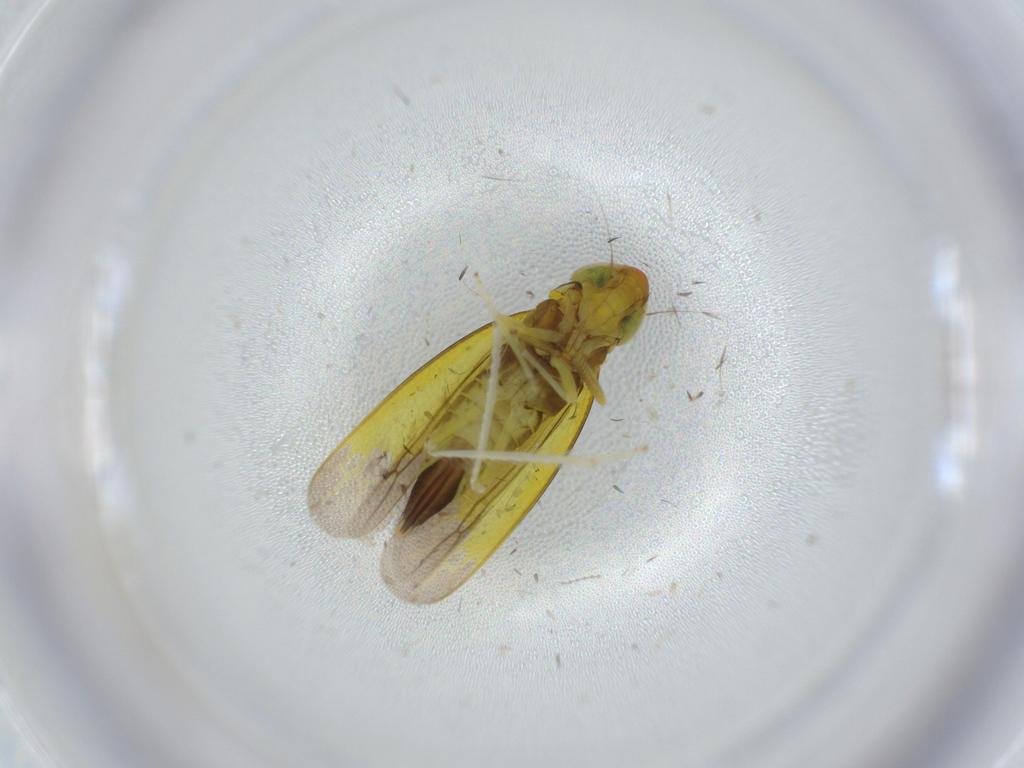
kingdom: Animalia
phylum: Arthropoda
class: Insecta
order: Hemiptera
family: Cicadellidae
